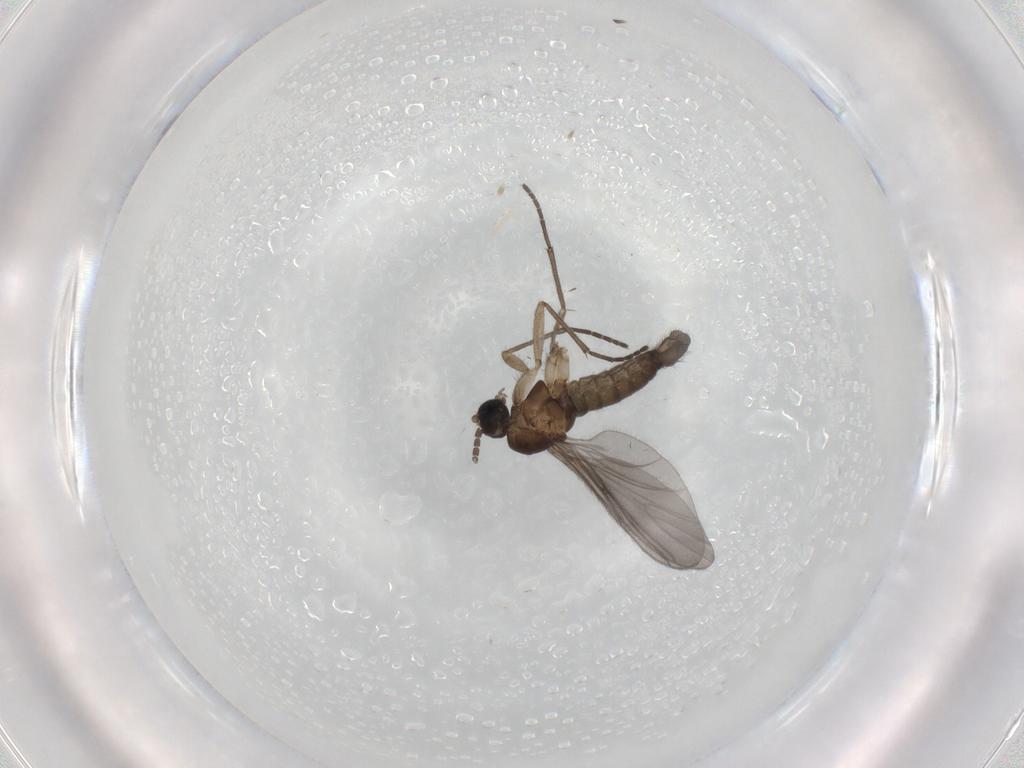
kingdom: Animalia
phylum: Arthropoda
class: Insecta
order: Diptera
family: Sciaridae
